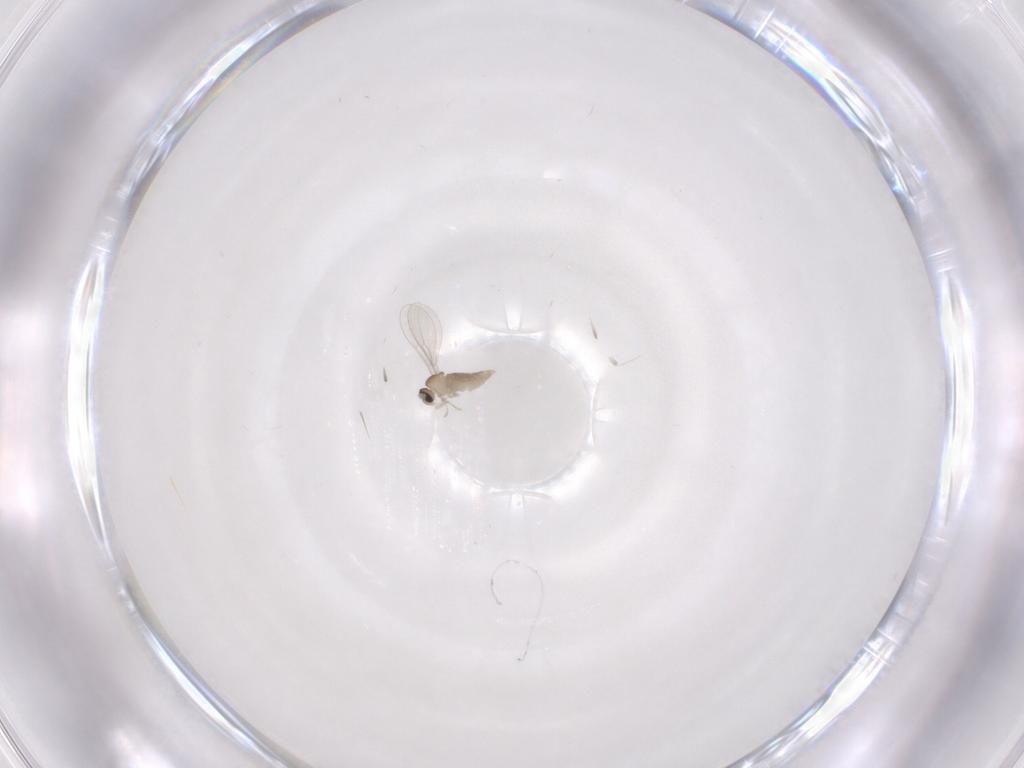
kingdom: Animalia
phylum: Arthropoda
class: Insecta
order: Diptera
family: Cecidomyiidae
